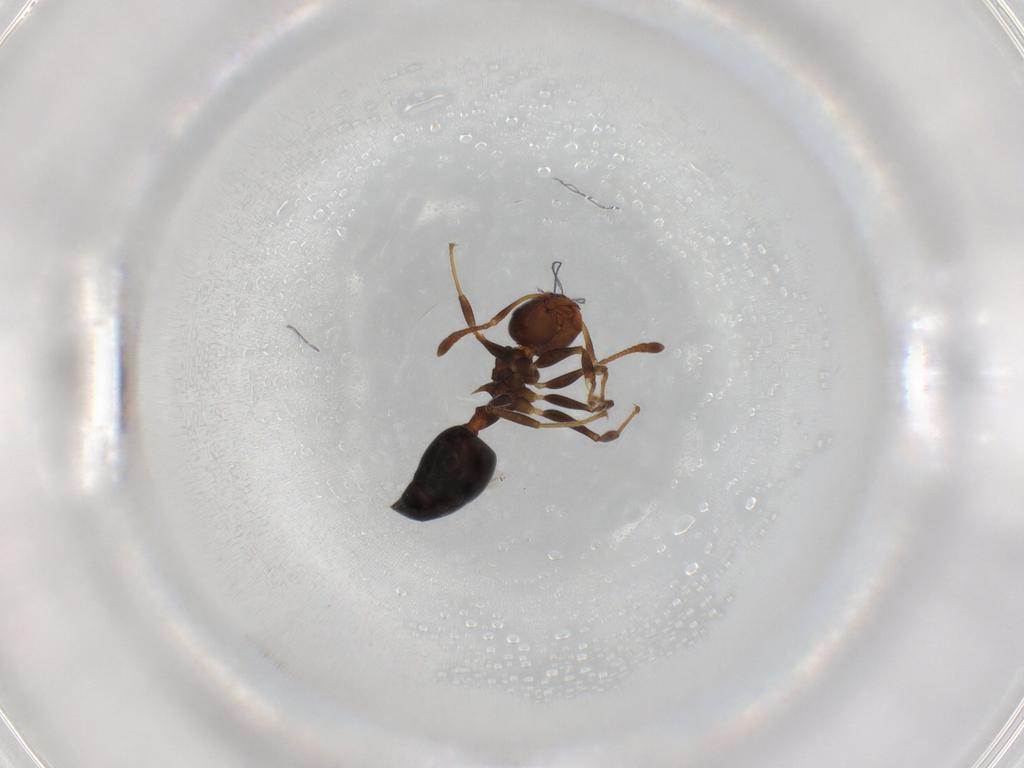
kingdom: Animalia
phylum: Arthropoda
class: Insecta
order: Hymenoptera
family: Formicidae
